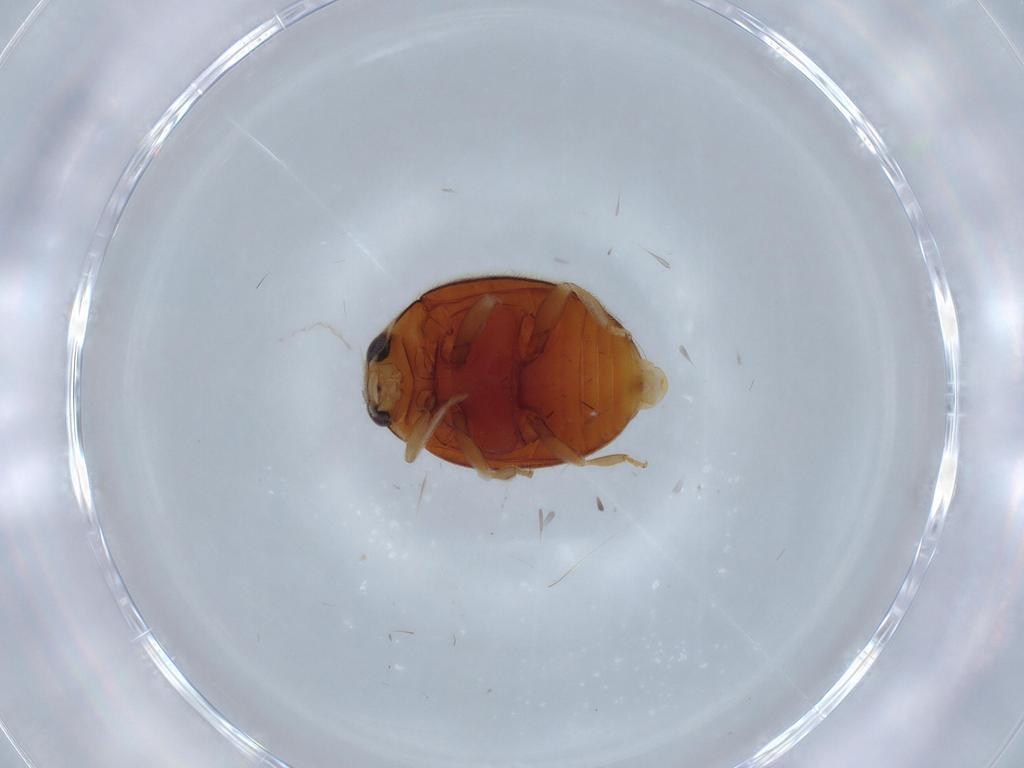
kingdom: Animalia
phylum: Arthropoda
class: Insecta
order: Coleoptera
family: Coccinellidae
